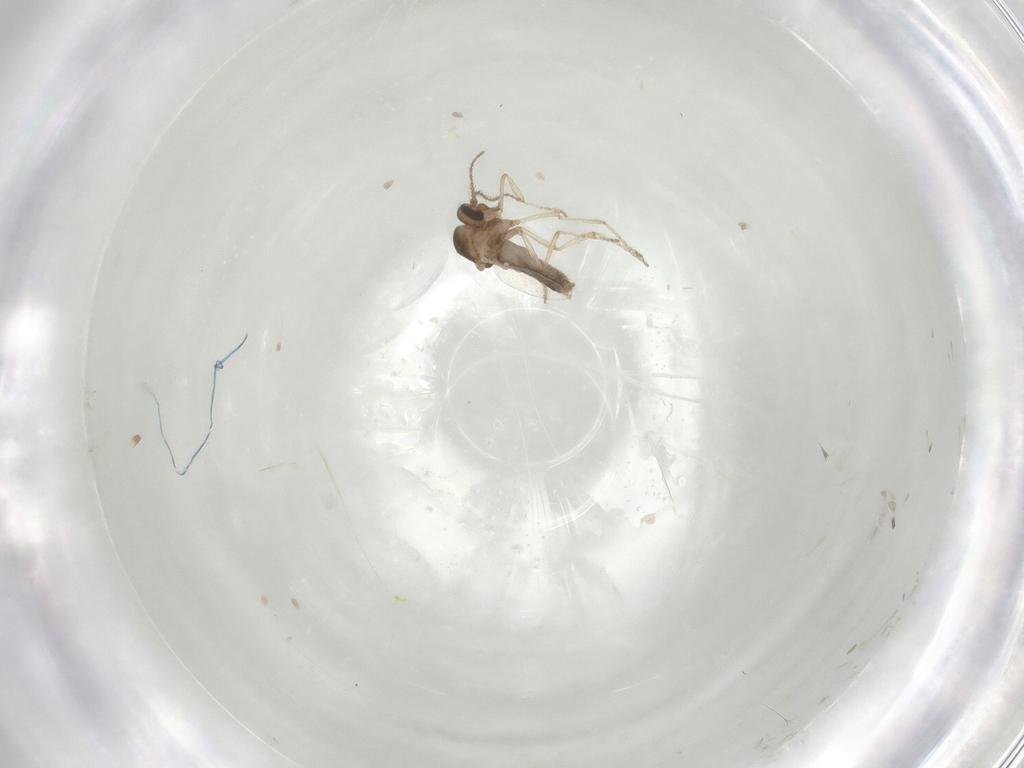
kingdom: Animalia
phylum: Arthropoda
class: Insecta
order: Diptera
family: Ceratopogonidae
